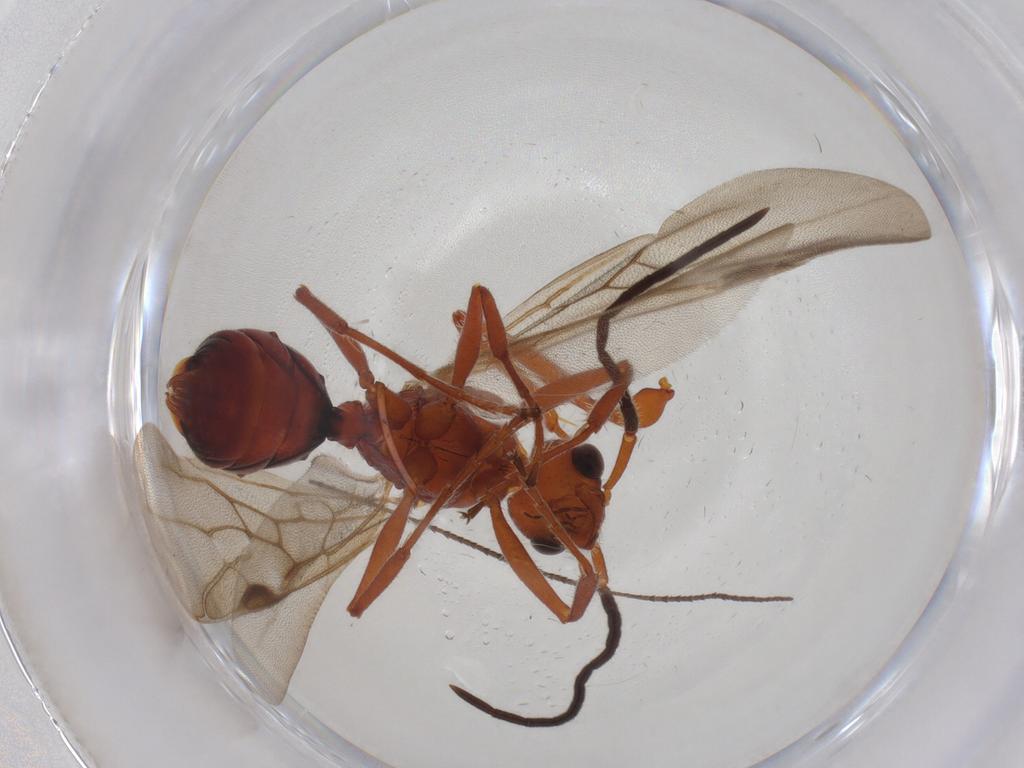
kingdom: Animalia
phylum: Arthropoda
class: Insecta
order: Hymenoptera
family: Formicidae
